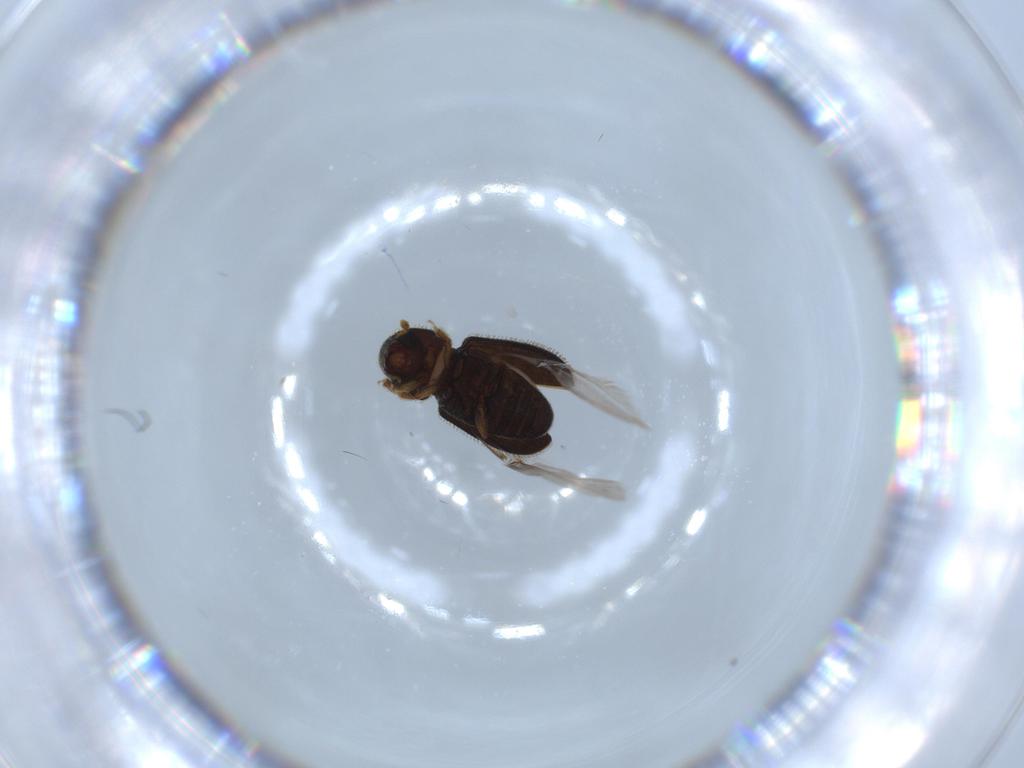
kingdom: Animalia
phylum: Arthropoda
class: Insecta
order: Coleoptera
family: Curculionidae
